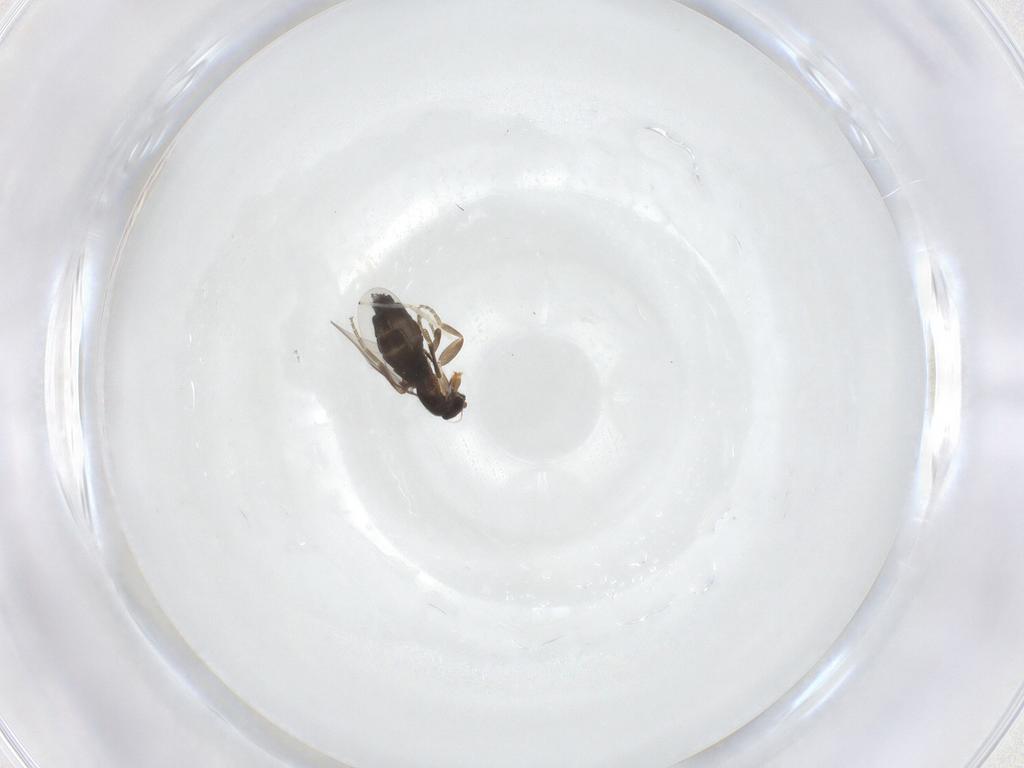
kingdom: Animalia
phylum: Arthropoda
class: Insecta
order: Diptera
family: Phoridae
